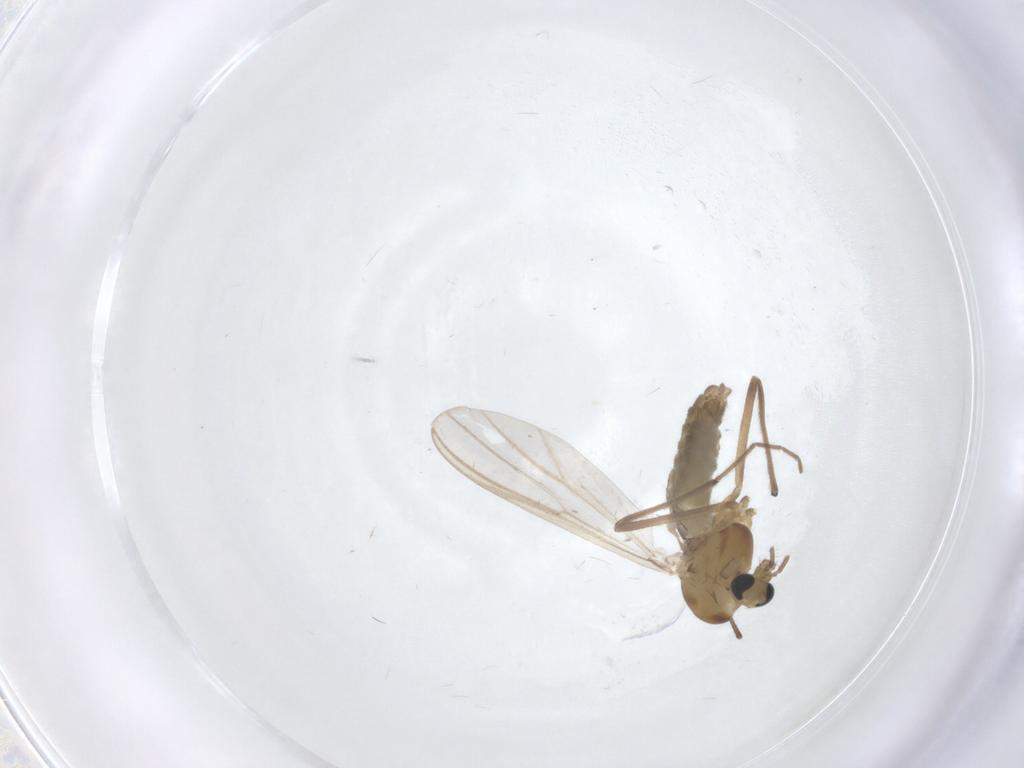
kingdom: Animalia
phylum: Arthropoda
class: Insecta
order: Diptera
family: Chironomidae
